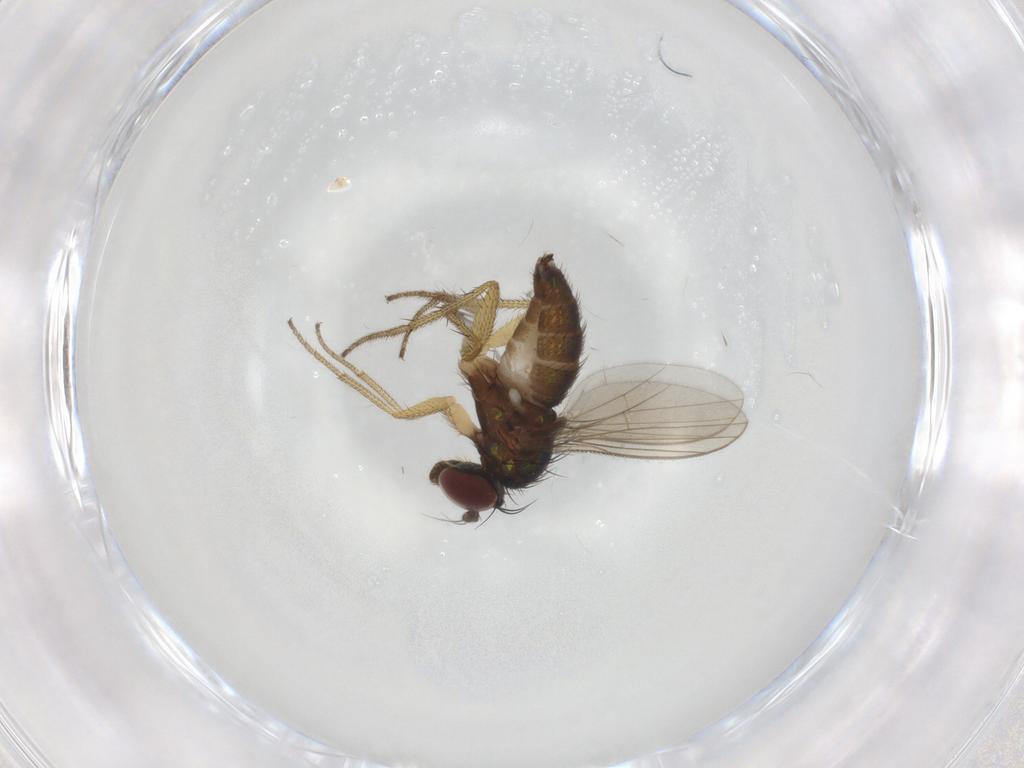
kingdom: Animalia
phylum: Arthropoda
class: Insecta
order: Diptera
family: Dolichopodidae
